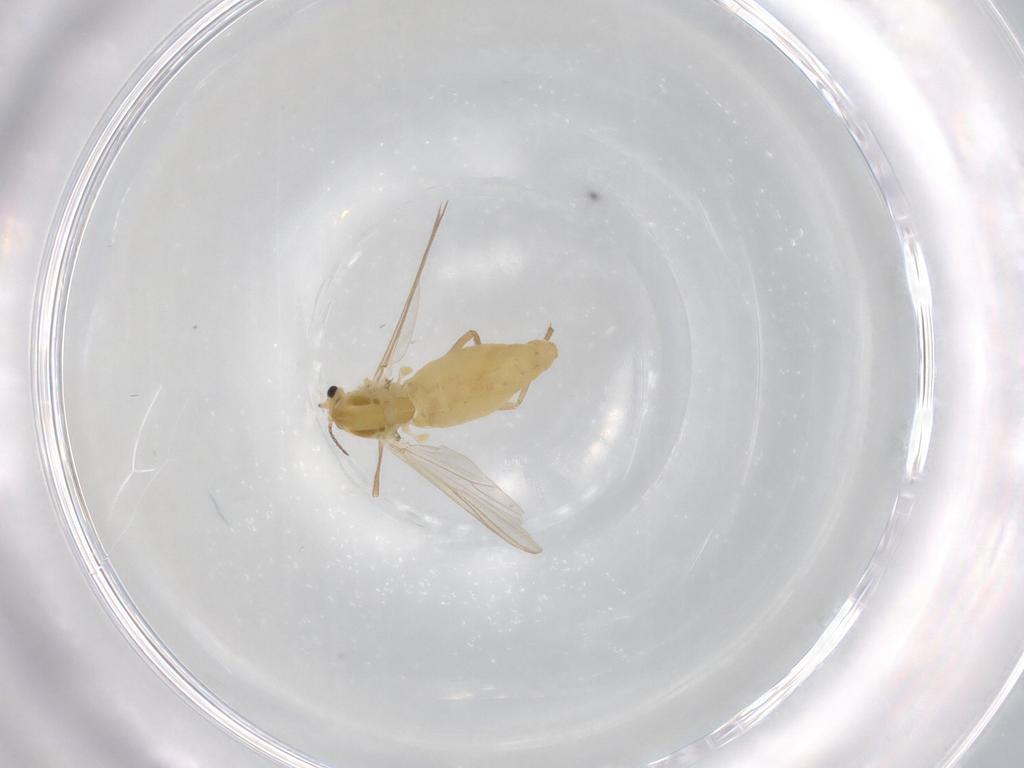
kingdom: Animalia
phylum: Arthropoda
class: Insecta
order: Diptera
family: Chironomidae
